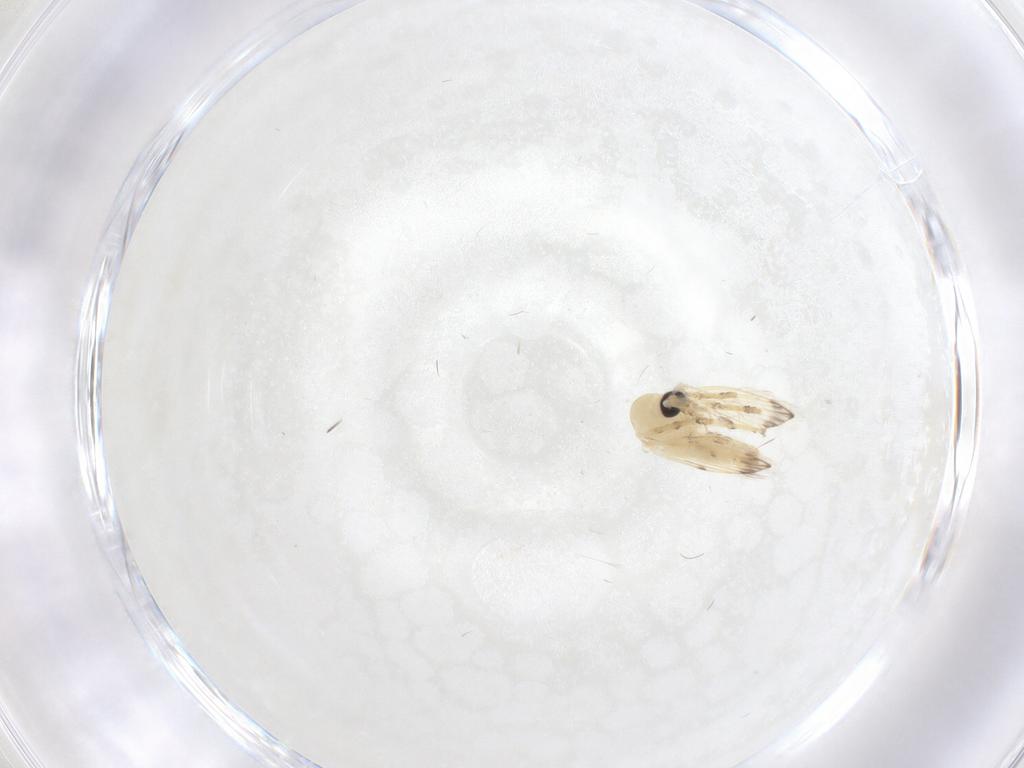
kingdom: Animalia
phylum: Arthropoda
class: Insecta
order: Diptera
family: Psychodidae
